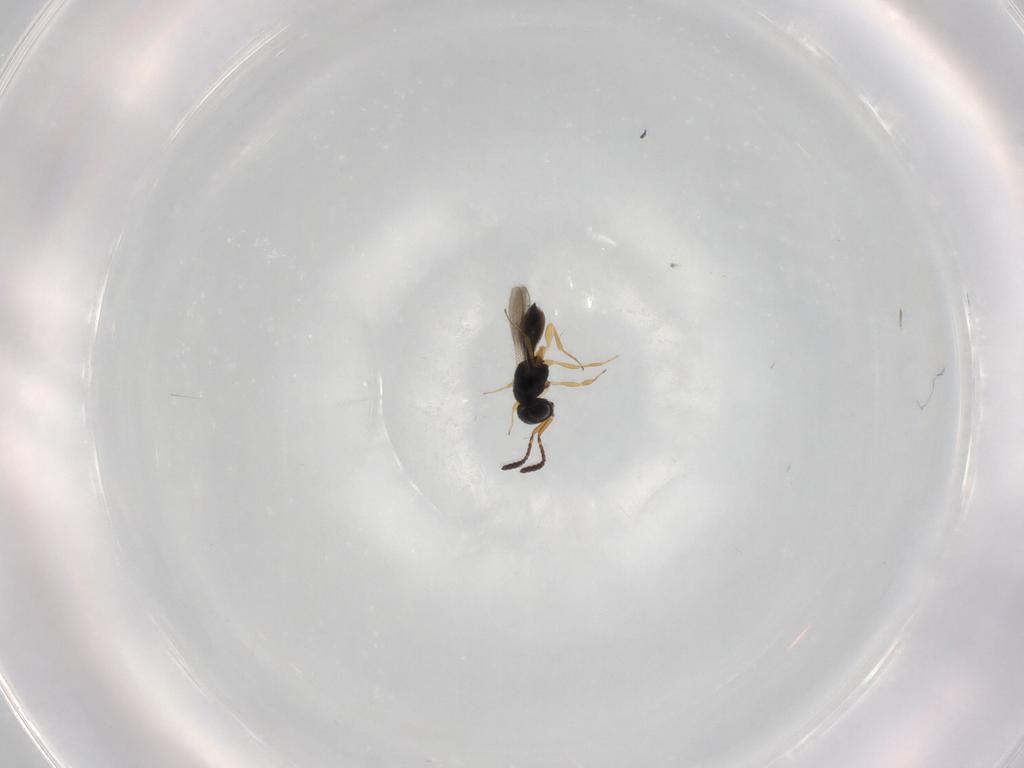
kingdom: Animalia
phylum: Arthropoda
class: Insecta
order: Hymenoptera
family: Scelionidae
